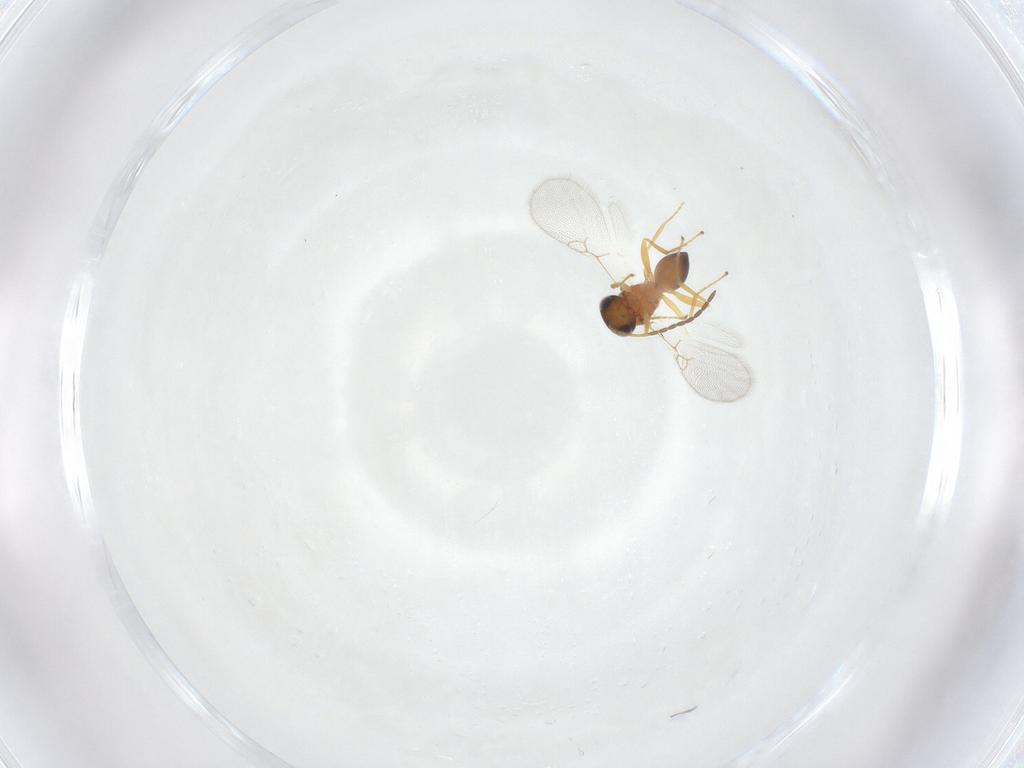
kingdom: Animalia
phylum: Arthropoda
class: Insecta
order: Hymenoptera
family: Figitidae
